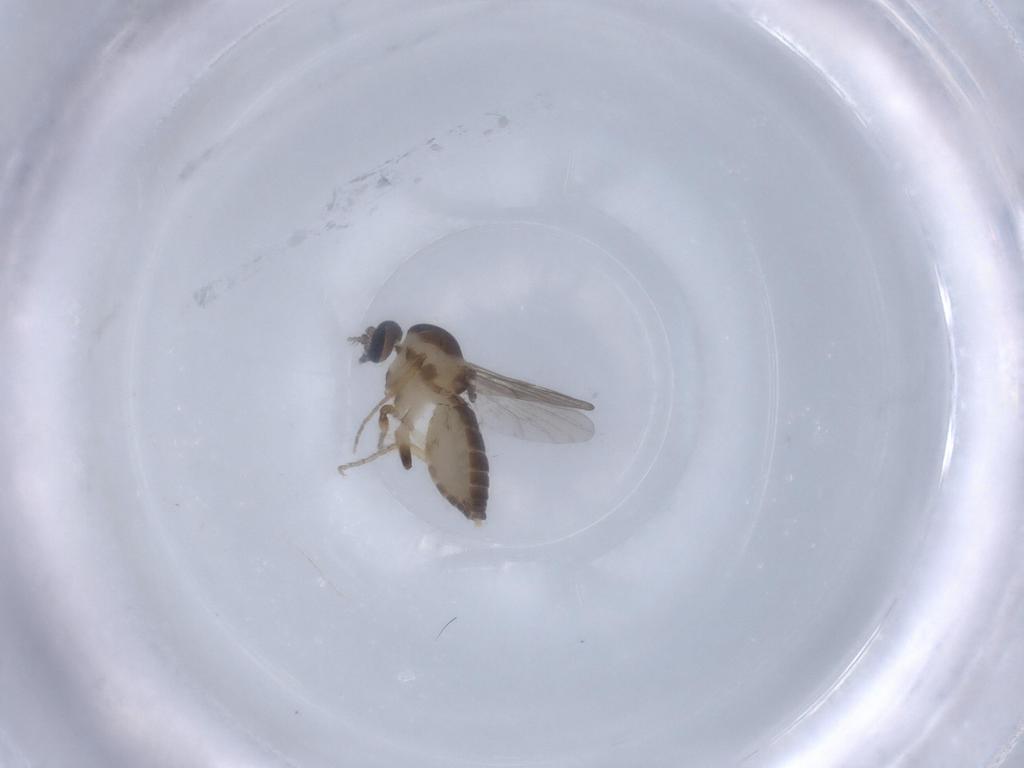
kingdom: Animalia
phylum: Arthropoda
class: Insecta
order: Diptera
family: Ceratopogonidae
